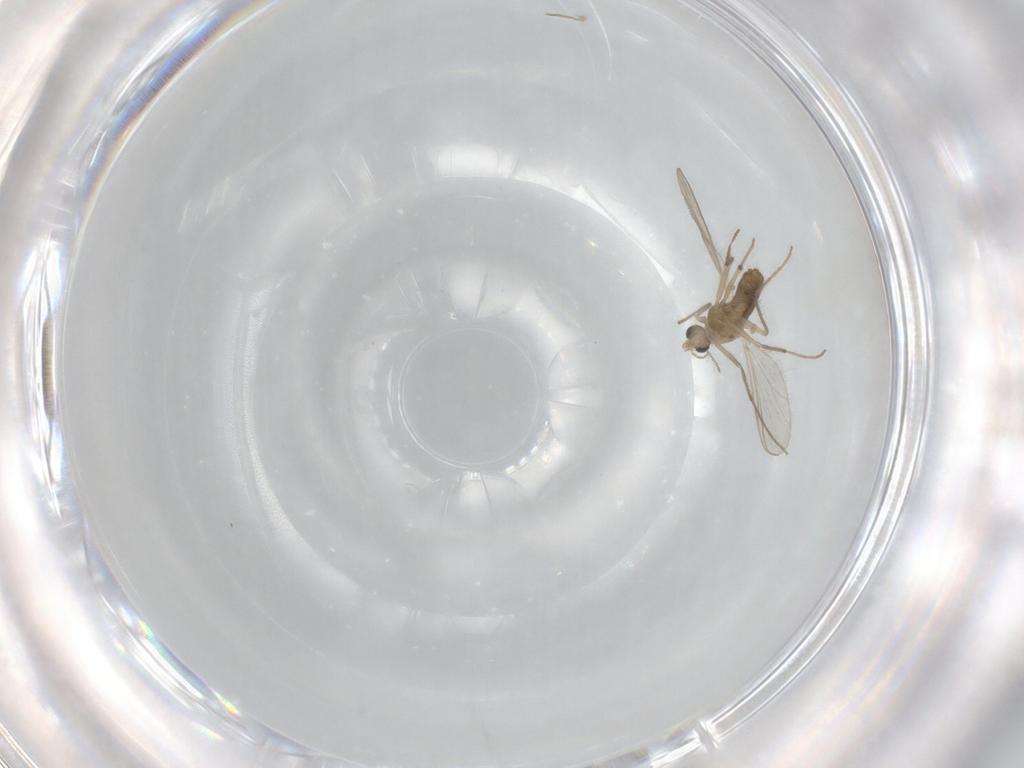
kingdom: Animalia
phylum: Arthropoda
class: Insecta
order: Diptera
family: Chironomidae
